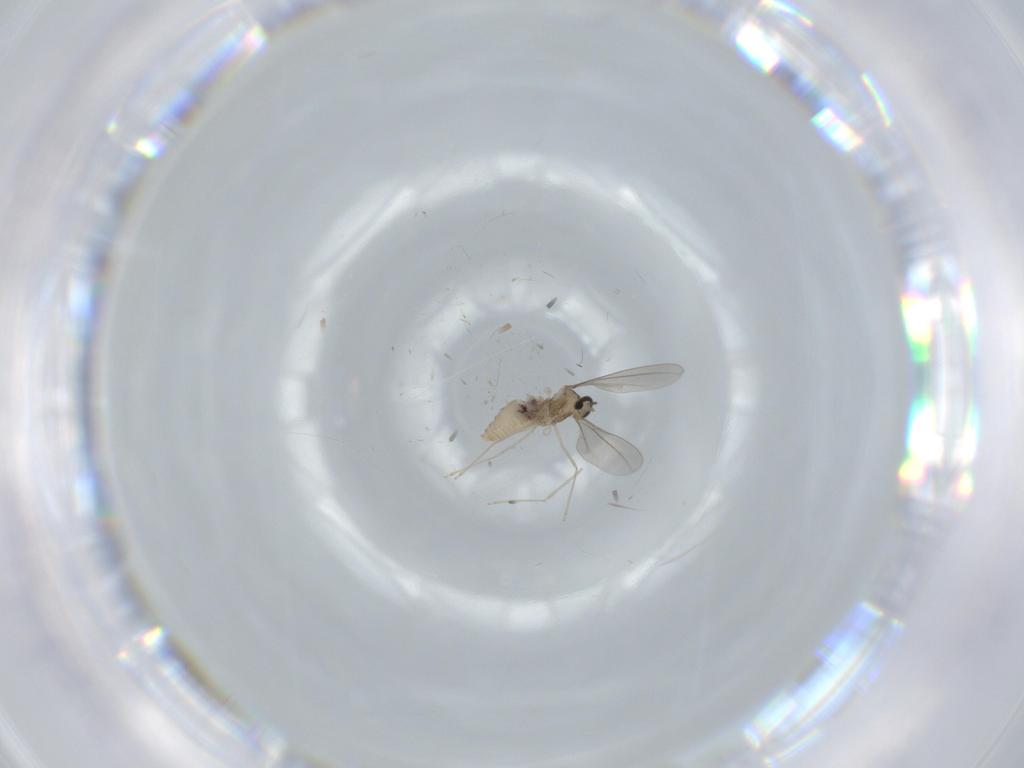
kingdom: Animalia
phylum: Arthropoda
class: Insecta
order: Diptera
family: Cecidomyiidae
